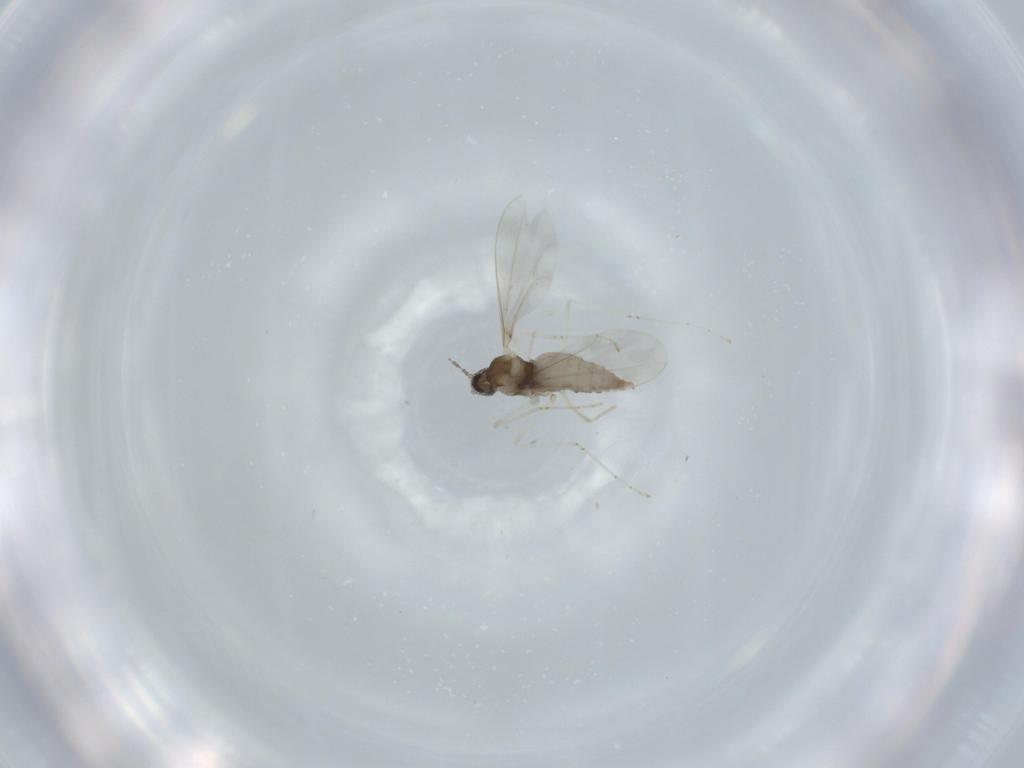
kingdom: Animalia
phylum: Arthropoda
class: Insecta
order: Diptera
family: Cecidomyiidae
